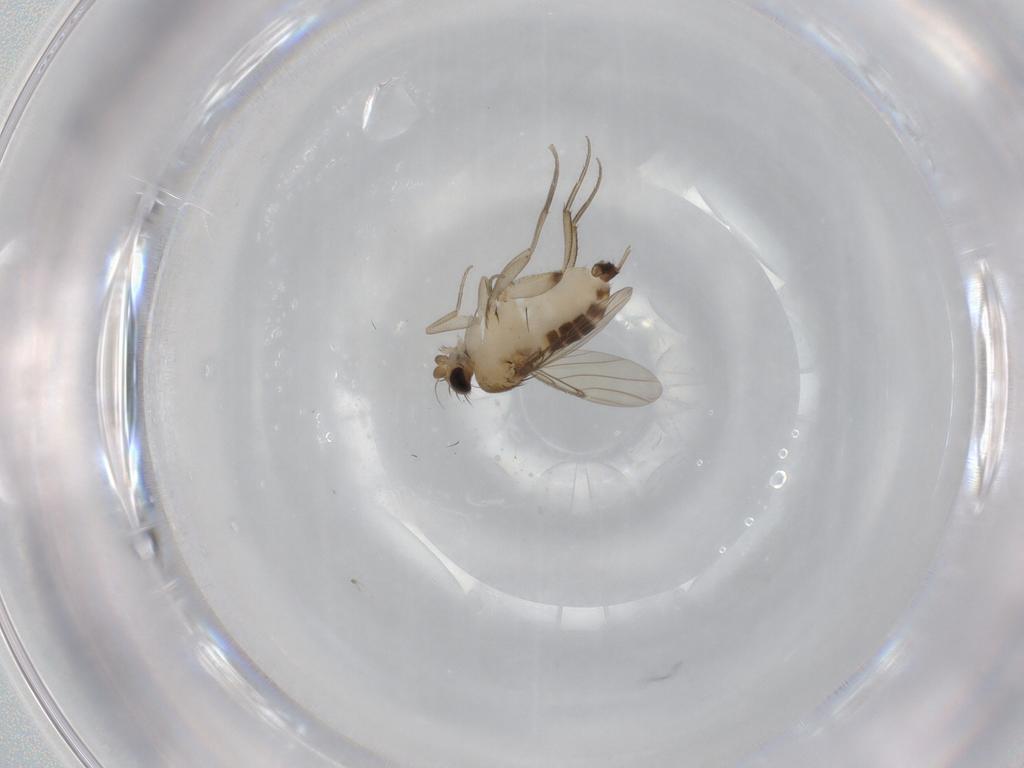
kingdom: Animalia
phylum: Arthropoda
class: Insecta
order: Diptera
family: Phoridae
